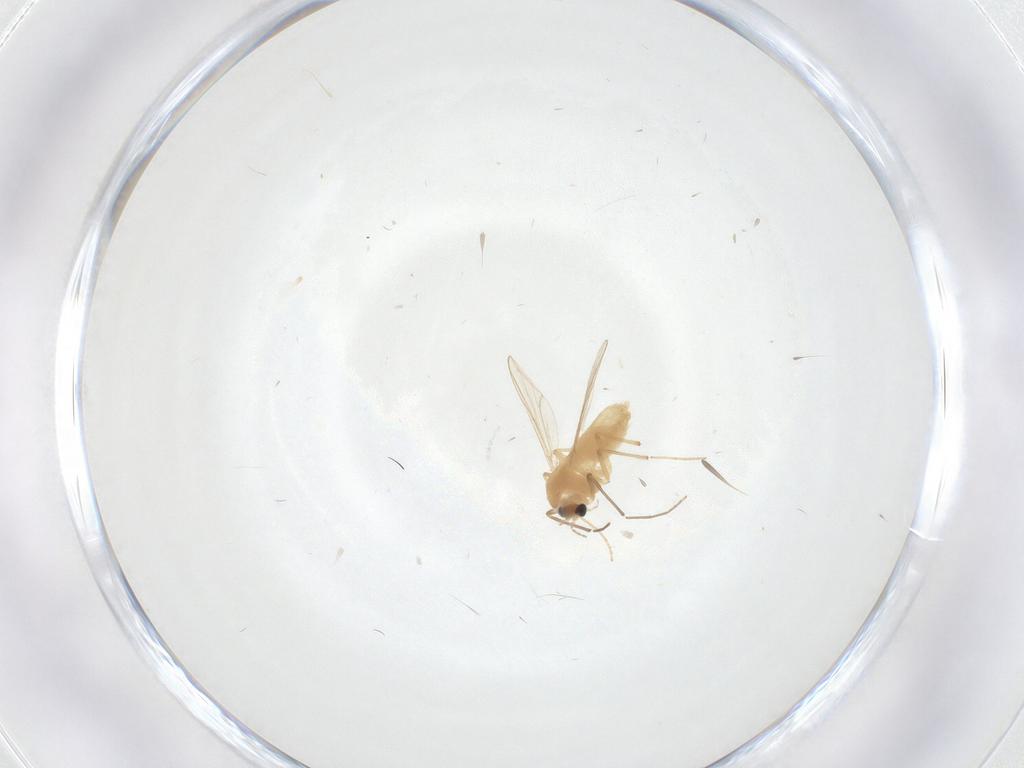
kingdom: Animalia
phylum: Arthropoda
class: Insecta
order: Diptera
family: Chironomidae
